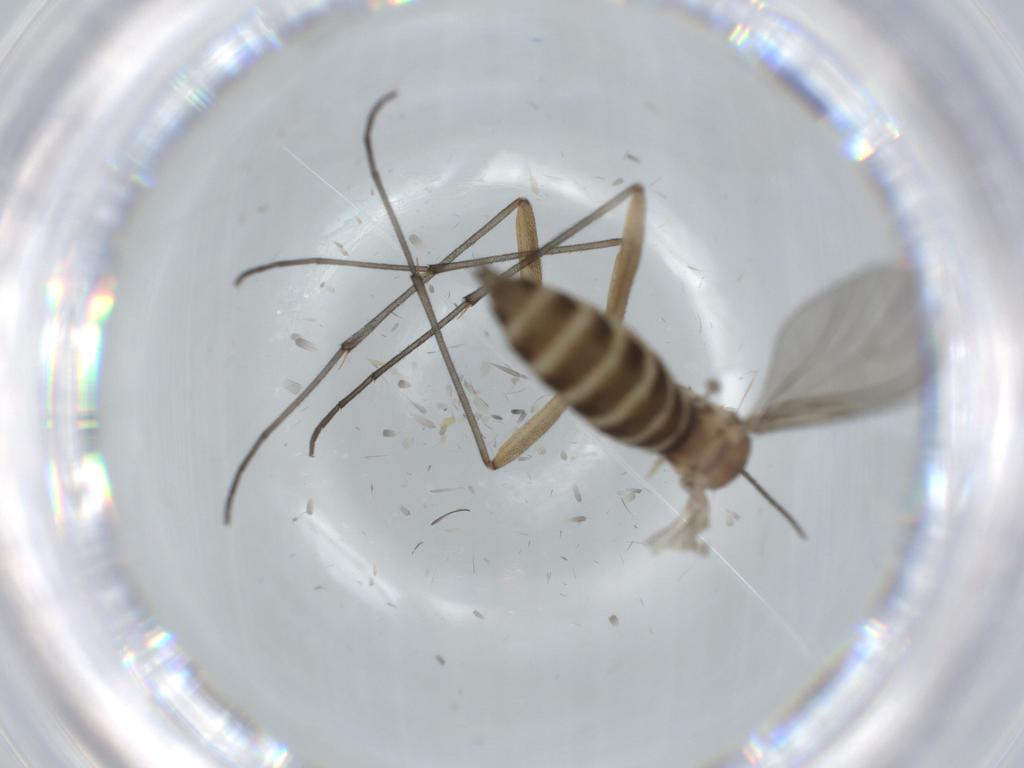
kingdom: Animalia
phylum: Arthropoda
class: Insecta
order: Diptera
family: Sciaridae
